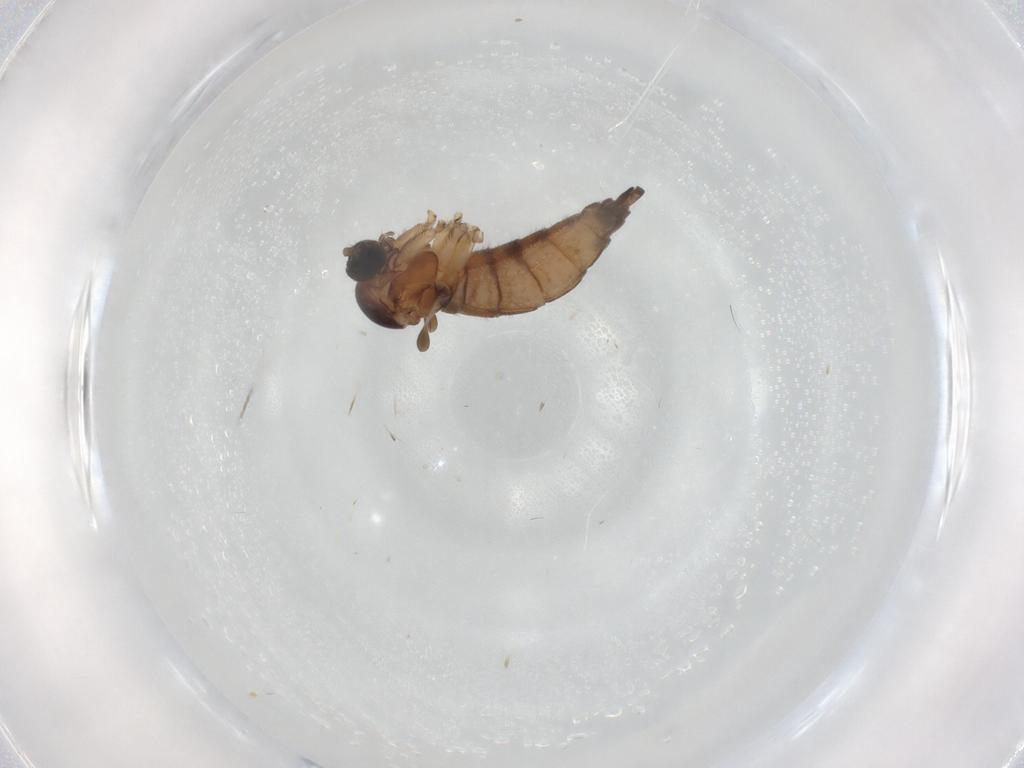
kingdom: Animalia
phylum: Arthropoda
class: Insecta
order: Diptera
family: Sciaridae
